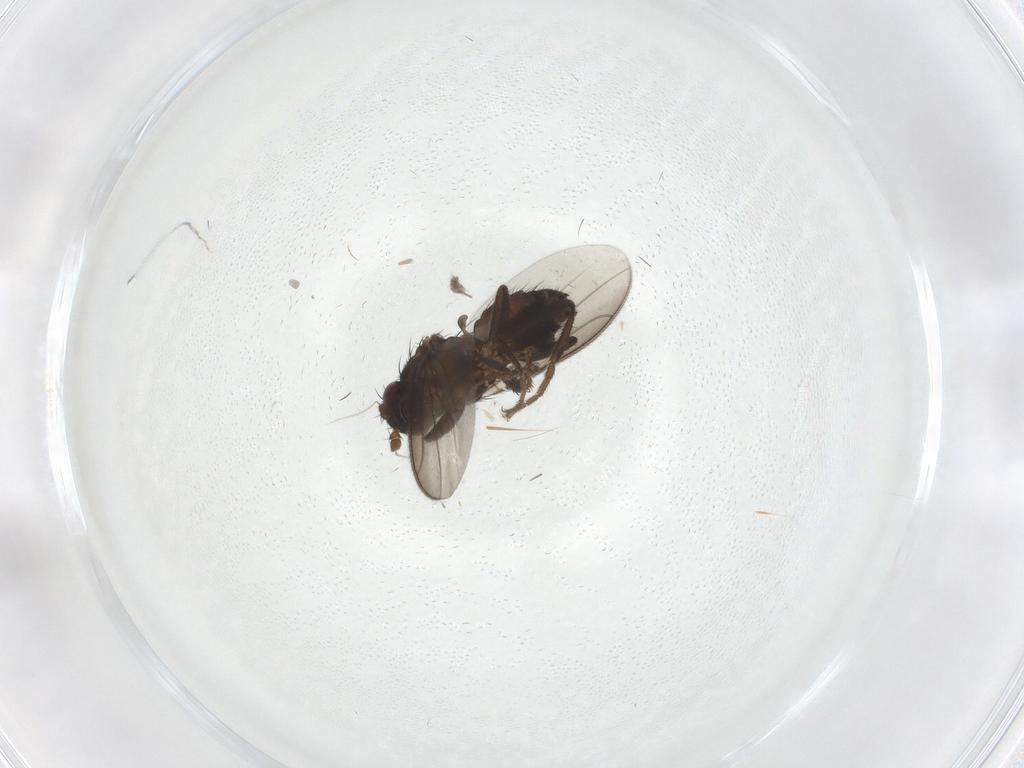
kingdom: Animalia
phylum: Arthropoda
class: Insecta
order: Diptera
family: Sphaeroceridae
